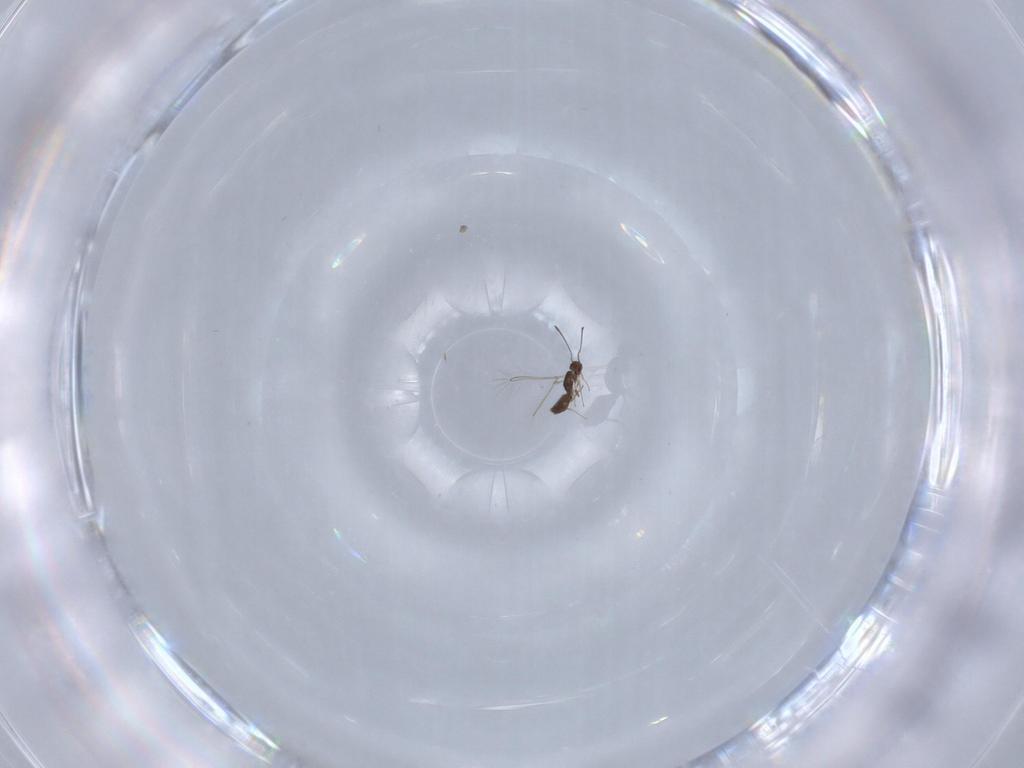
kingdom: Animalia
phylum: Arthropoda
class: Insecta
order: Hymenoptera
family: Mymaridae
